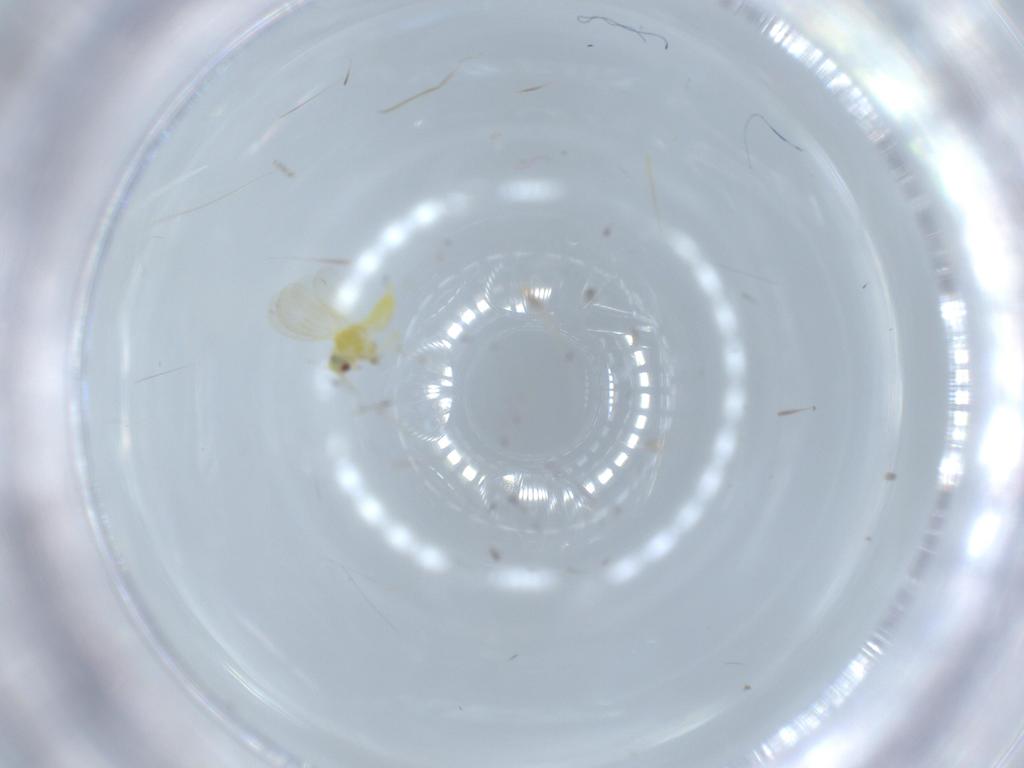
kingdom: Animalia
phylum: Arthropoda
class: Insecta
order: Hemiptera
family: Aleyrodidae
